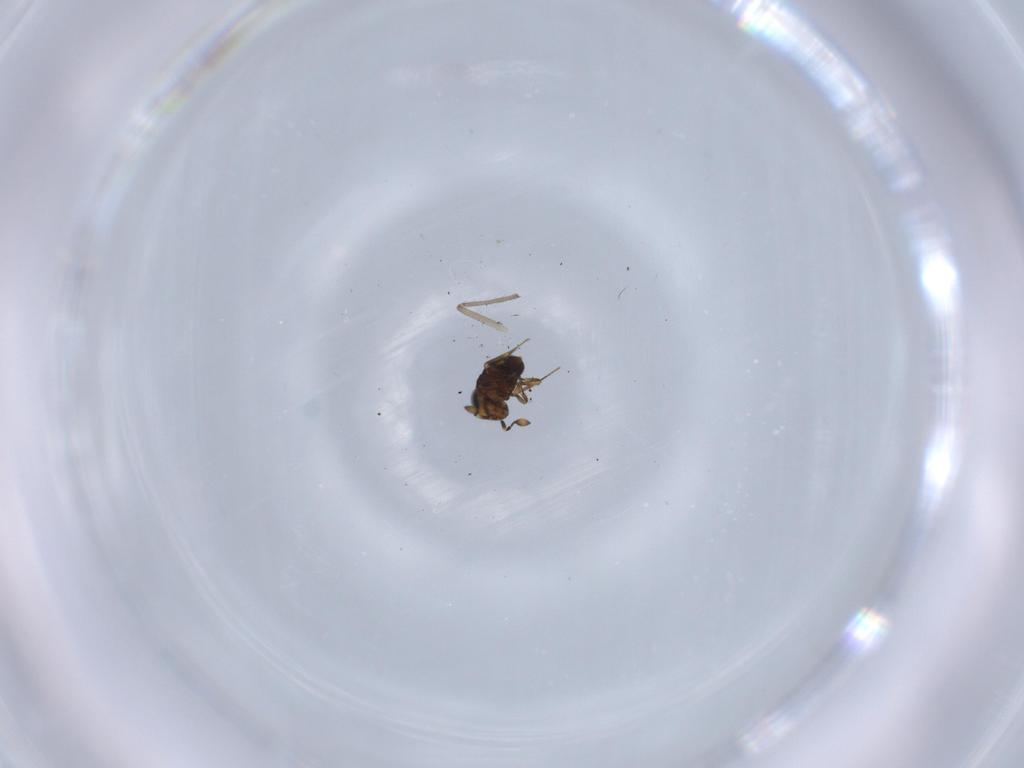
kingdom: Animalia
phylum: Arthropoda
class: Insecta
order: Hymenoptera
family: Scelionidae
